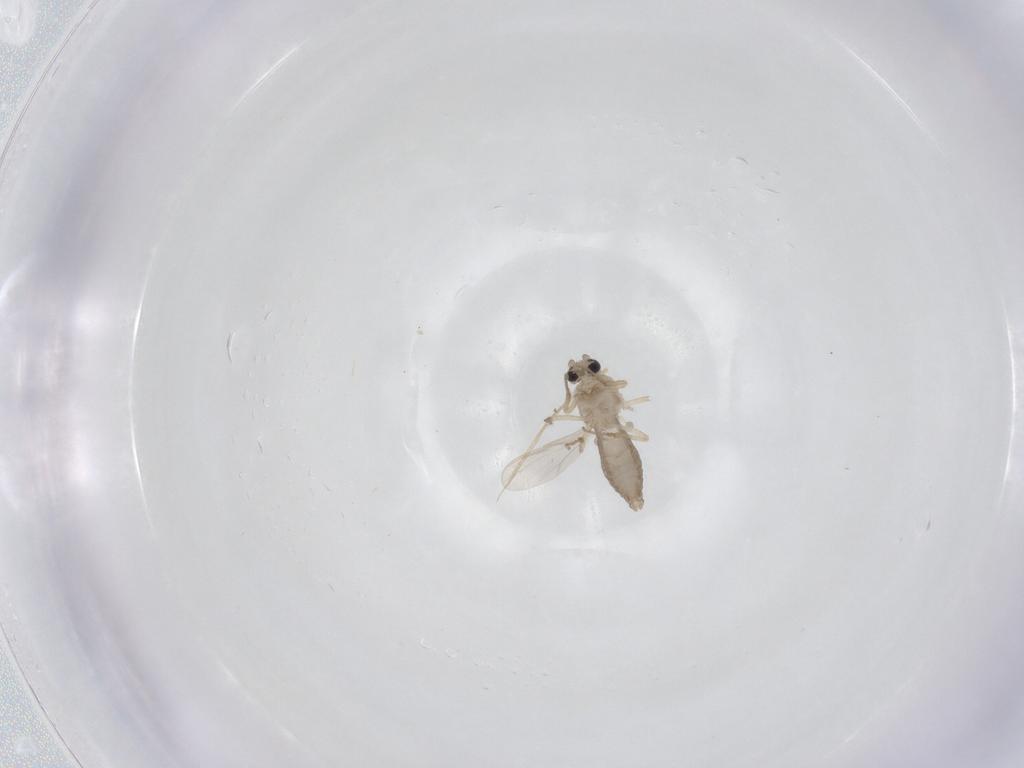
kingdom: Animalia
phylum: Arthropoda
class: Insecta
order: Diptera
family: Ceratopogonidae
